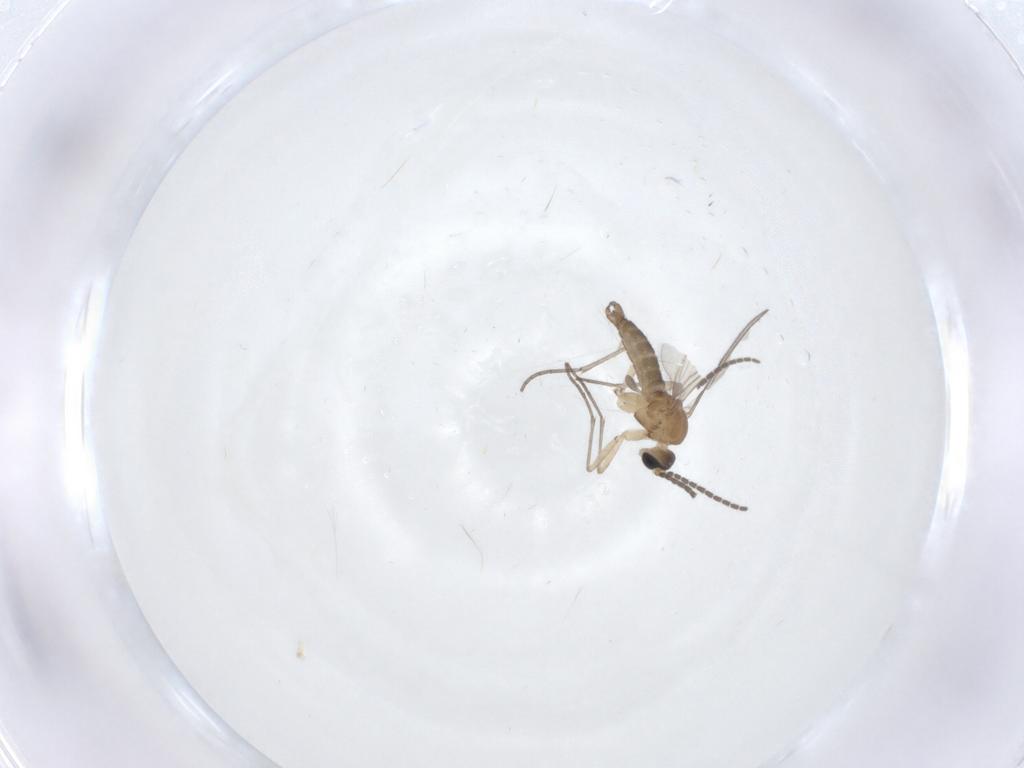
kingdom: Animalia
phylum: Arthropoda
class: Insecta
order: Diptera
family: Sciaridae
